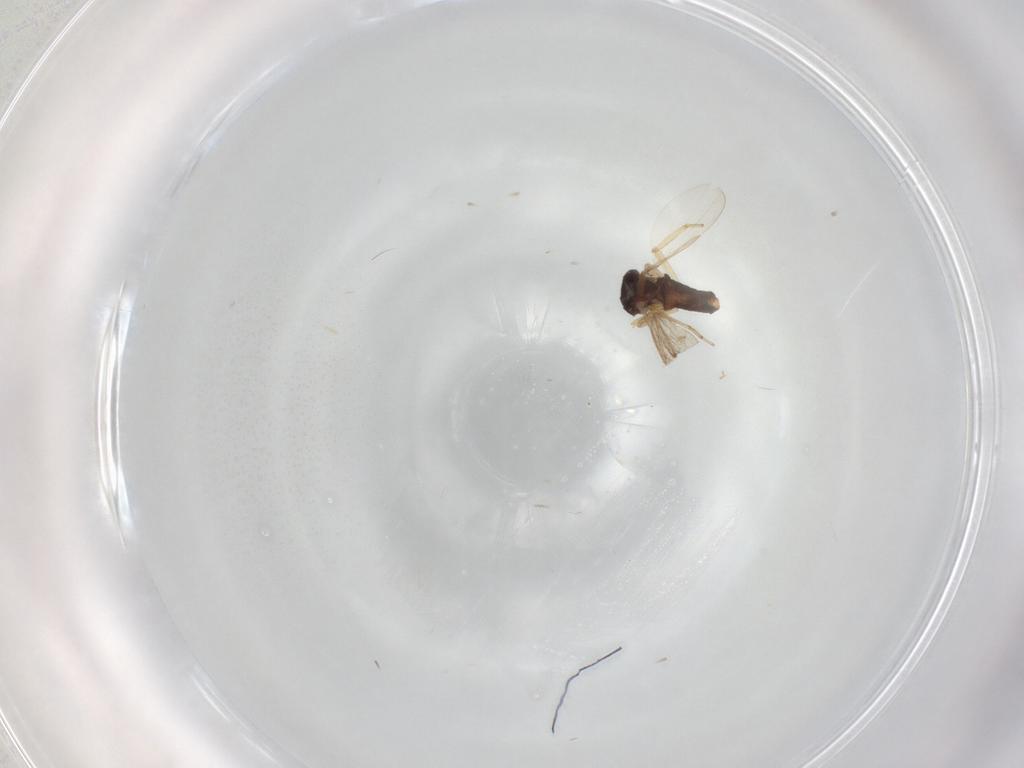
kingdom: Animalia
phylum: Arthropoda
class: Insecta
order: Diptera
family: Ceratopogonidae
